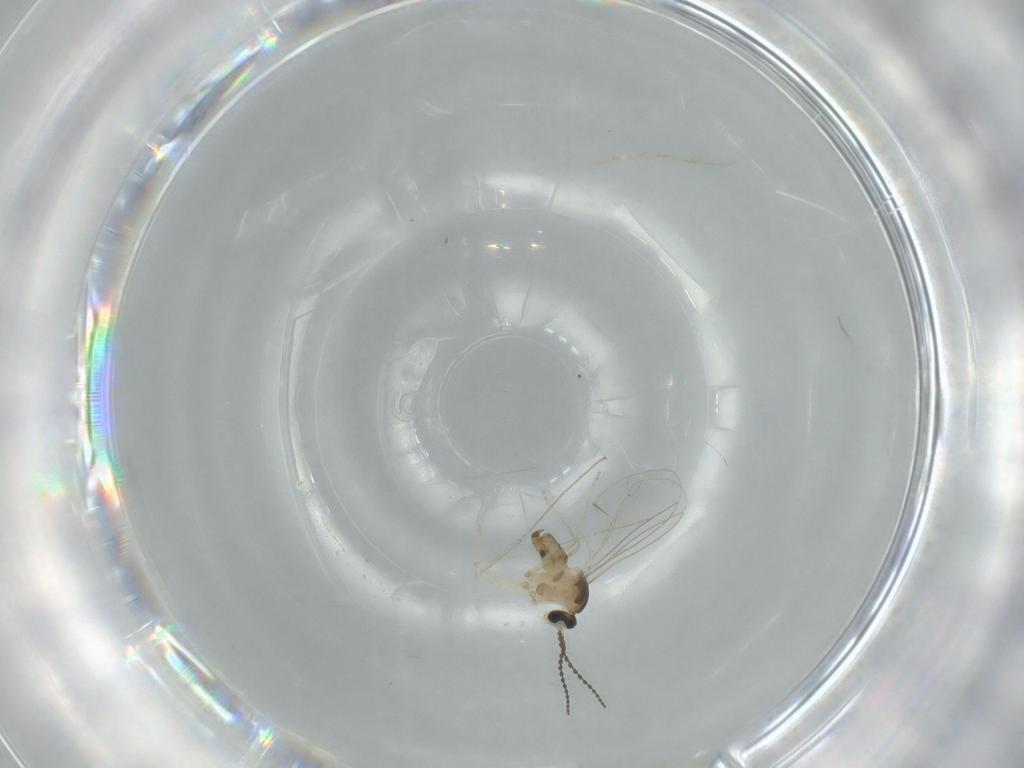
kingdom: Animalia
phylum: Arthropoda
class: Insecta
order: Diptera
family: Cecidomyiidae
